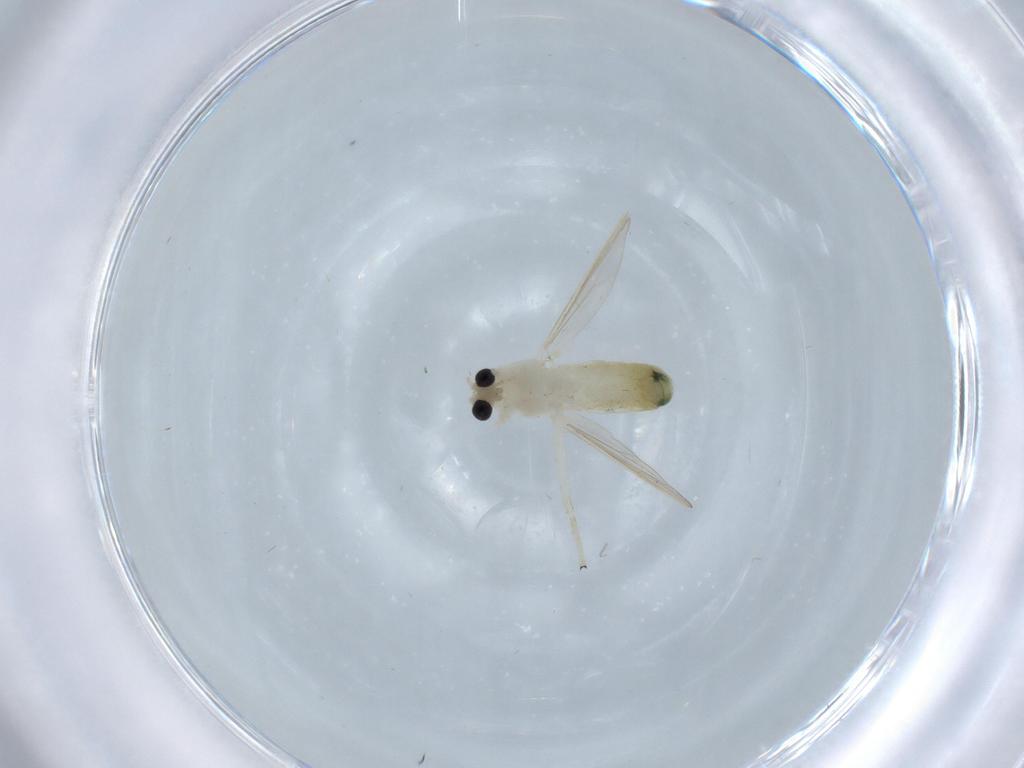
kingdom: Animalia
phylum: Arthropoda
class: Insecta
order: Diptera
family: Chironomidae
